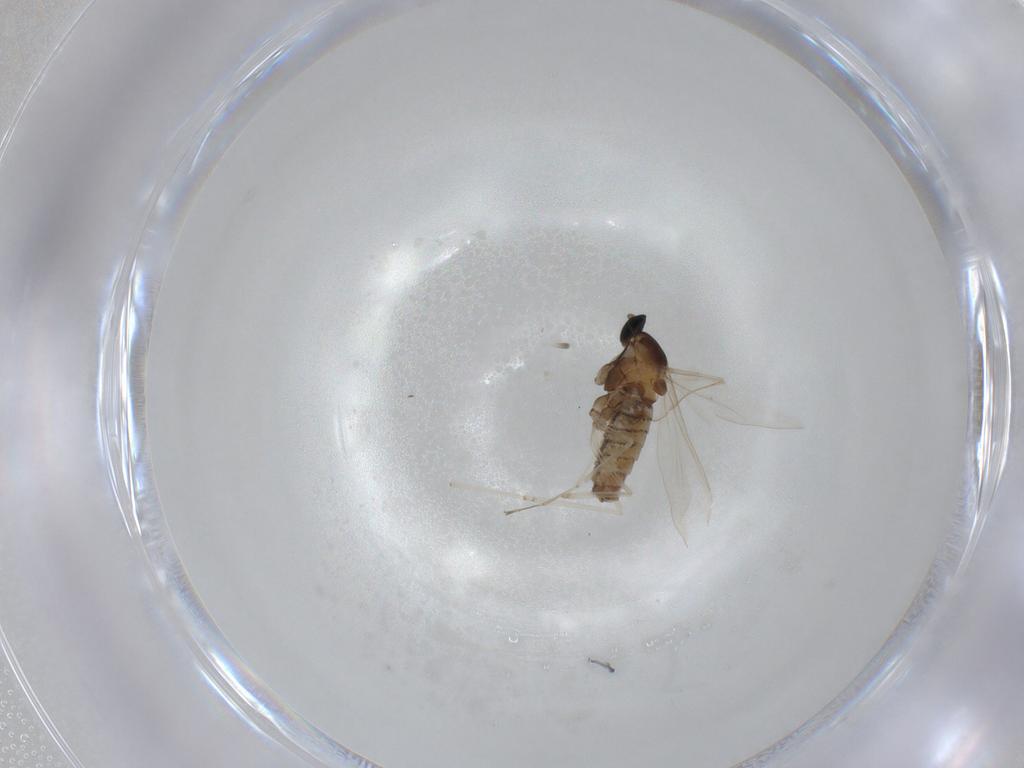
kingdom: Animalia
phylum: Arthropoda
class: Insecta
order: Diptera
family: Cecidomyiidae
